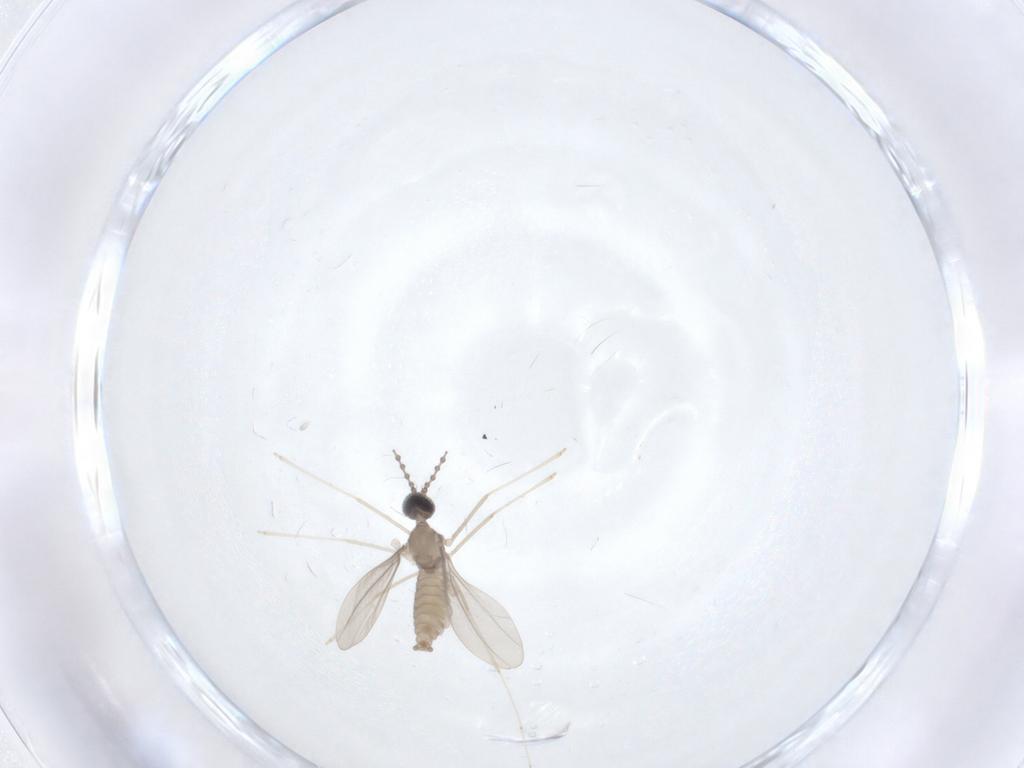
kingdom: Animalia
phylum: Arthropoda
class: Insecta
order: Diptera
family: Cecidomyiidae
